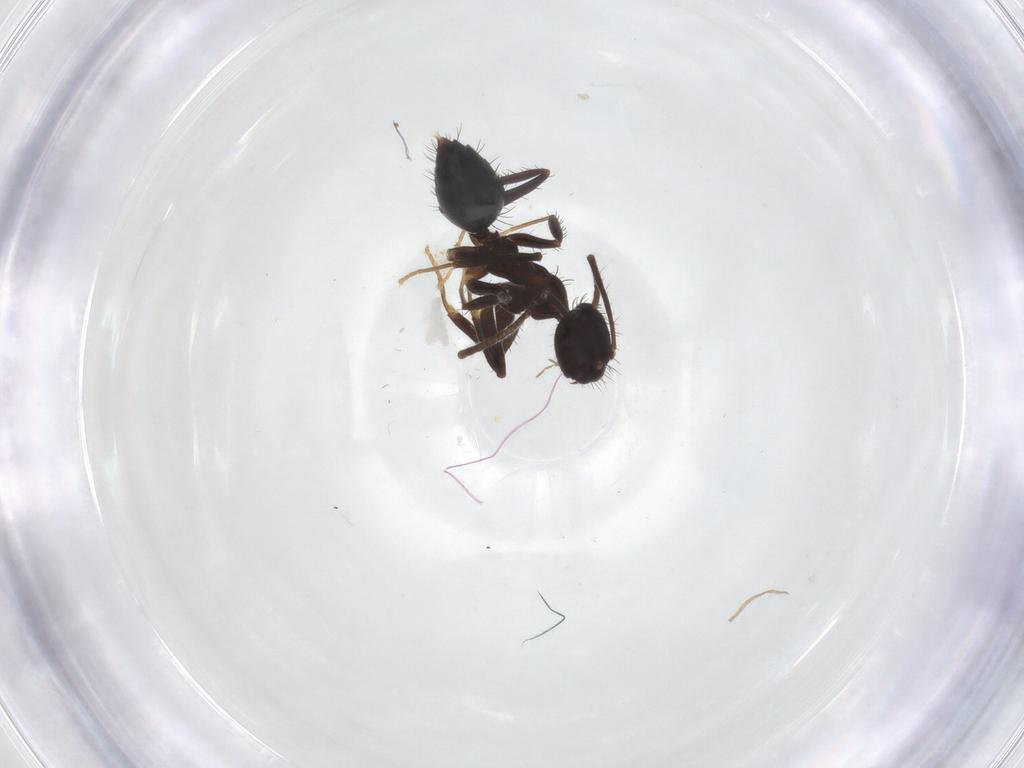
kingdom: Animalia
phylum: Arthropoda
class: Insecta
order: Hymenoptera
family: Formicidae
